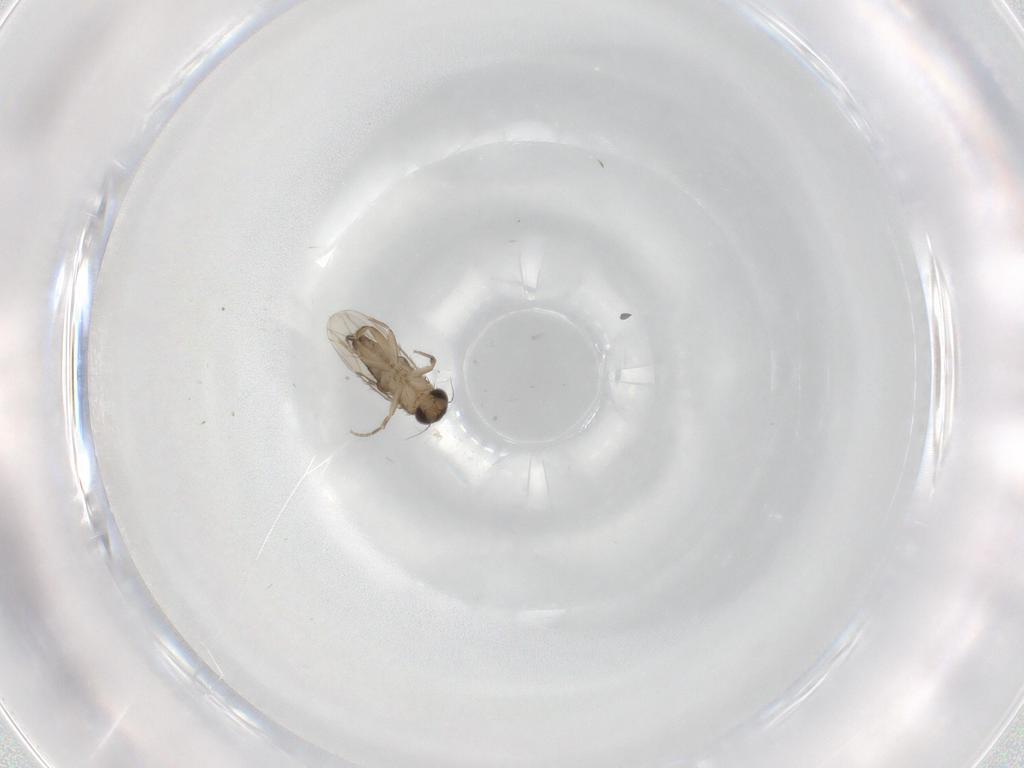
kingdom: Animalia
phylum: Arthropoda
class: Insecta
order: Diptera
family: Phoridae
